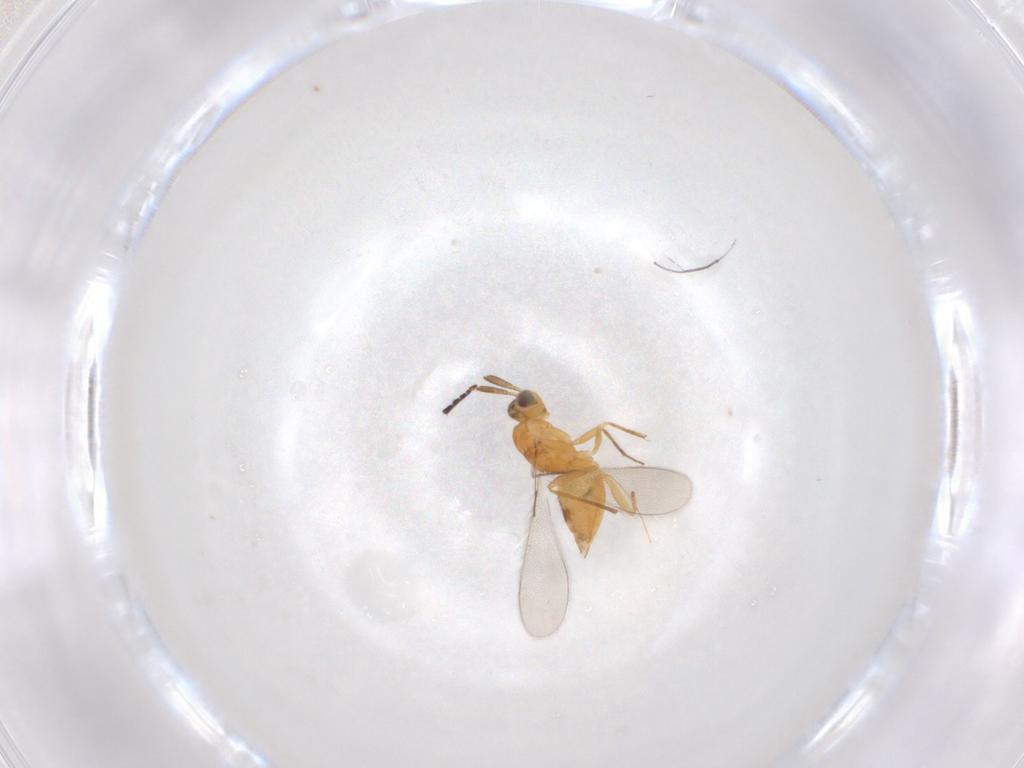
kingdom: Animalia
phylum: Arthropoda
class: Insecta
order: Hymenoptera
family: Mymaridae
